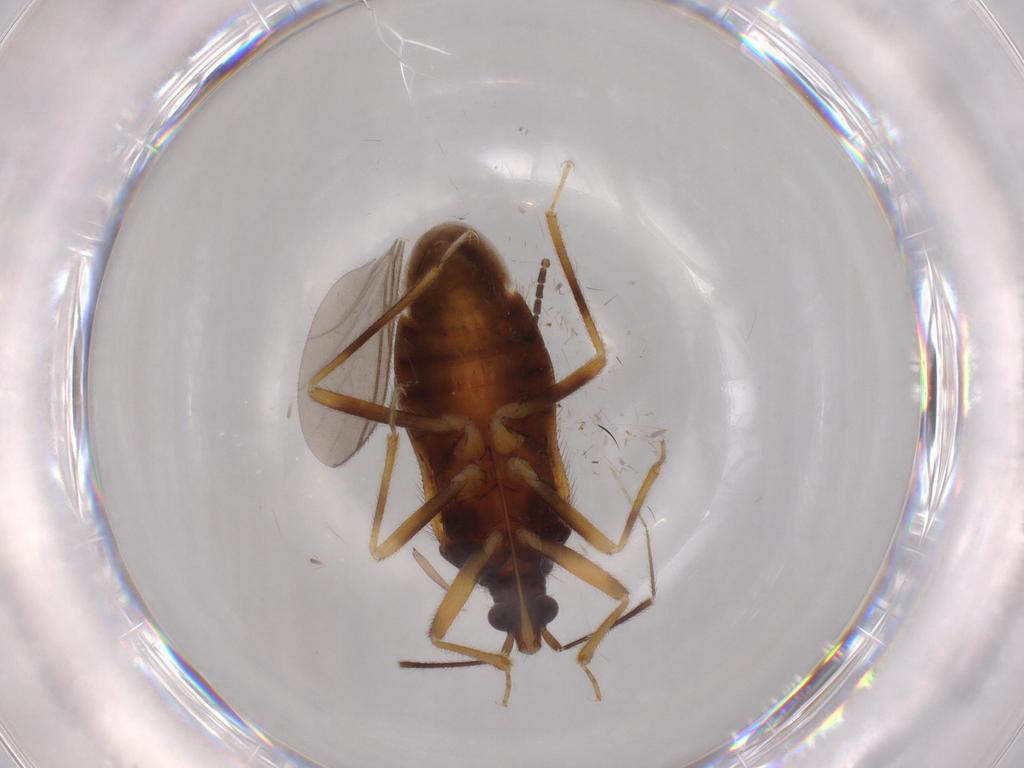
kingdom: Animalia
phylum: Arthropoda
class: Insecta
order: Hemiptera
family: Anthocoridae
